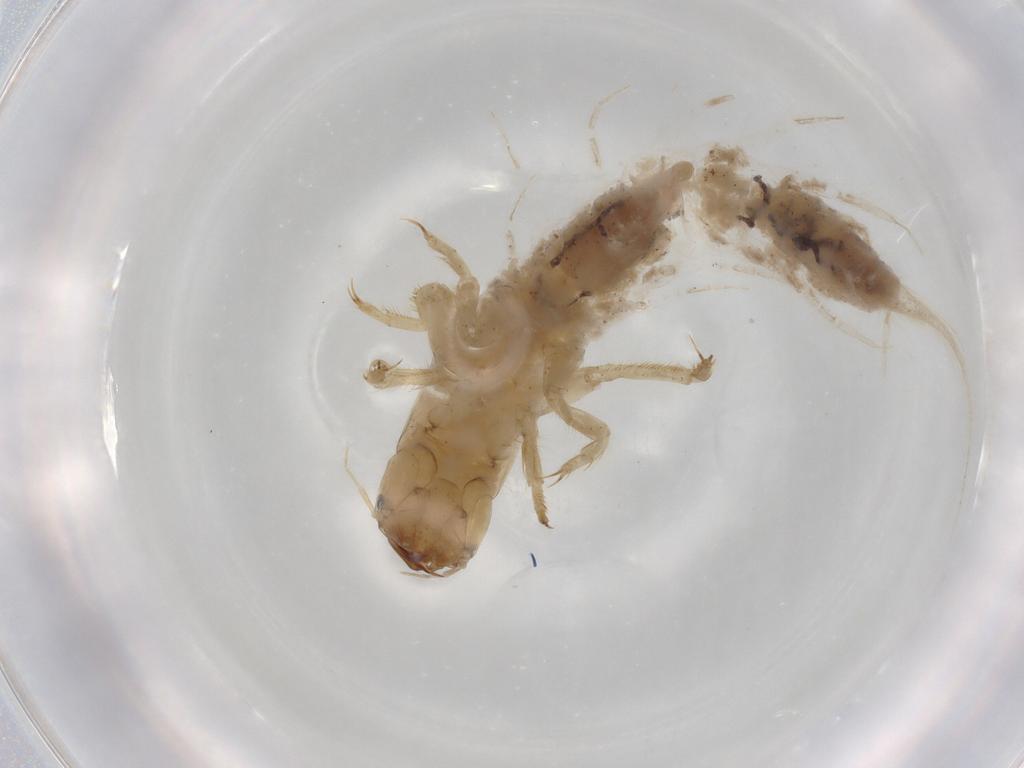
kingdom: Animalia
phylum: Arthropoda
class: Insecta
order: Megaloptera
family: Sialidae
